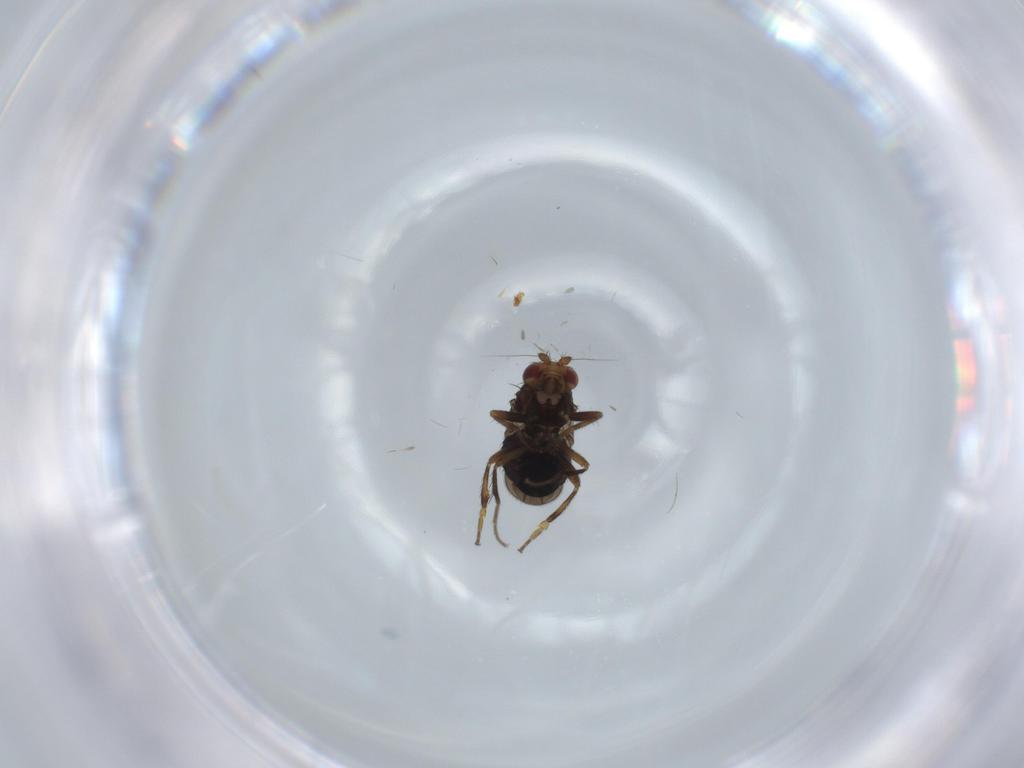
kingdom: Animalia
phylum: Arthropoda
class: Insecta
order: Diptera
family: Sphaeroceridae
